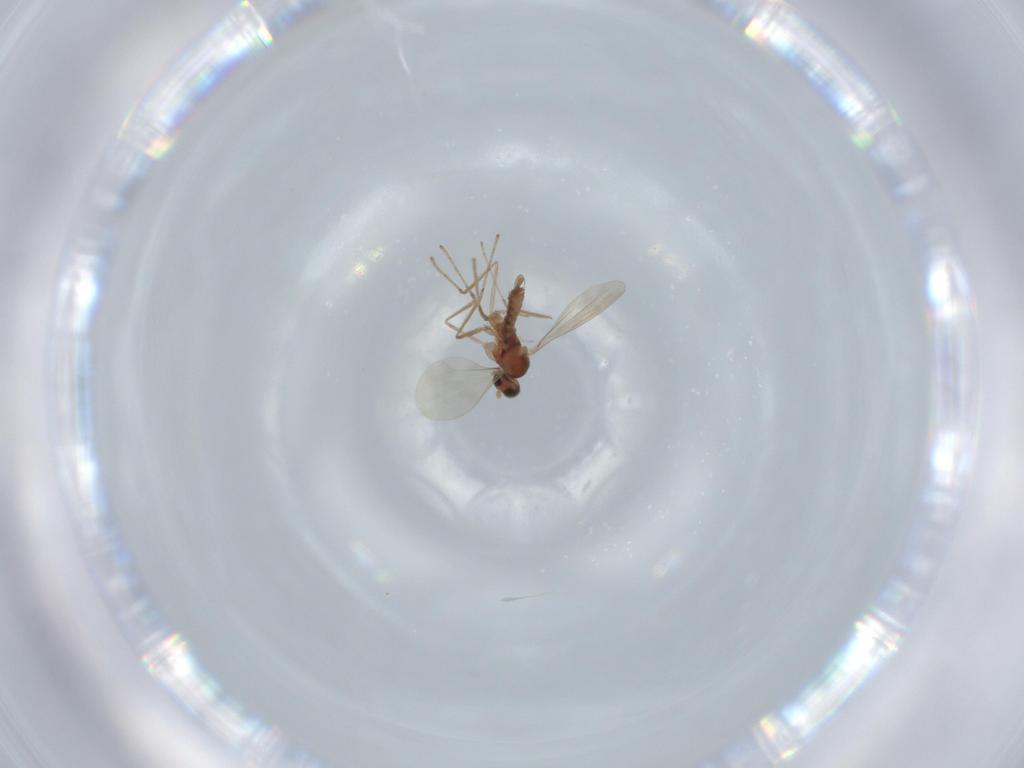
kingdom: Animalia
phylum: Arthropoda
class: Insecta
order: Diptera
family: Cecidomyiidae
